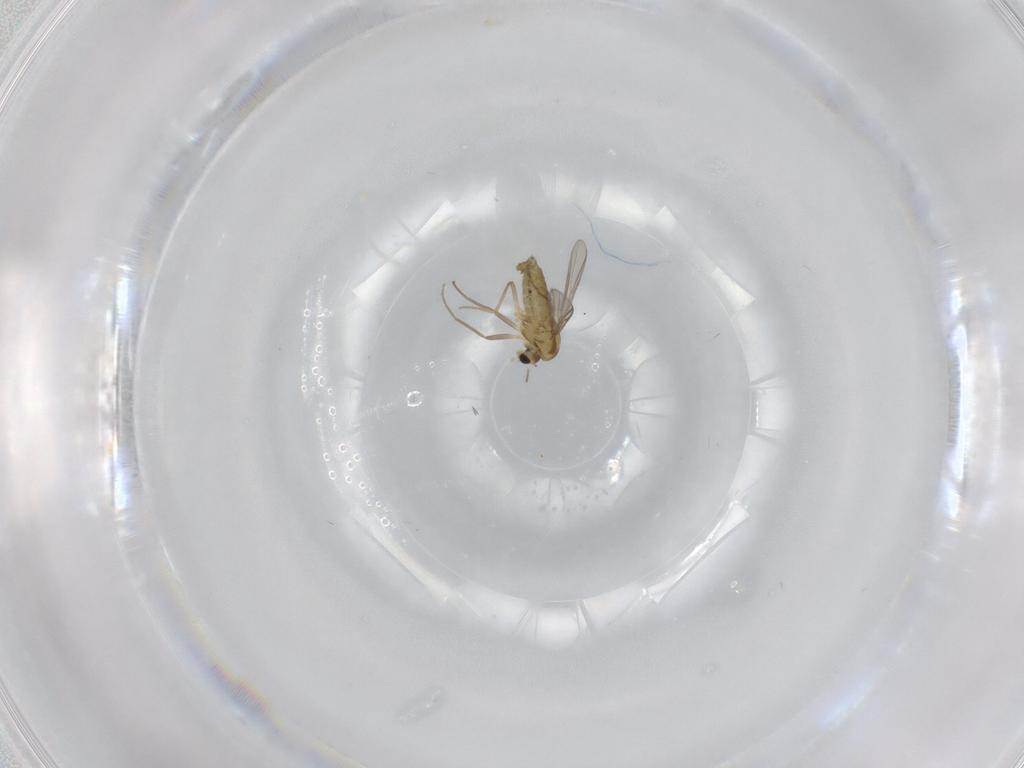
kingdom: Animalia
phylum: Arthropoda
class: Insecta
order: Diptera
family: Chironomidae
